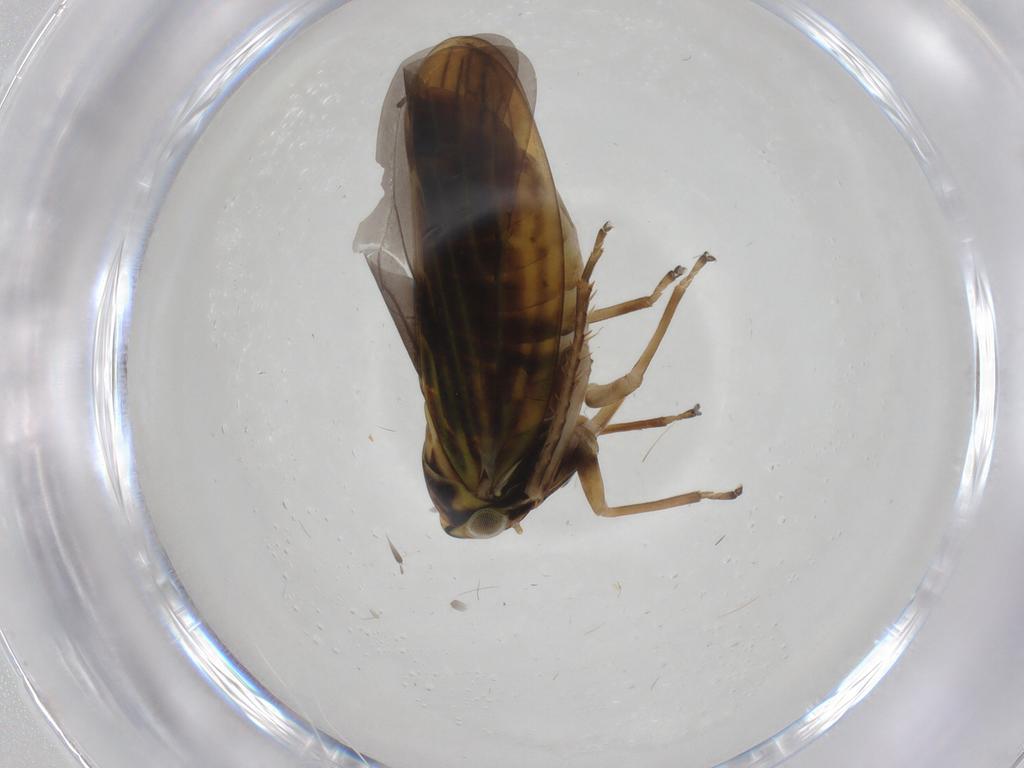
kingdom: Animalia
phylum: Arthropoda
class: Insecta
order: Hemiptera
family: Cicadellidae
